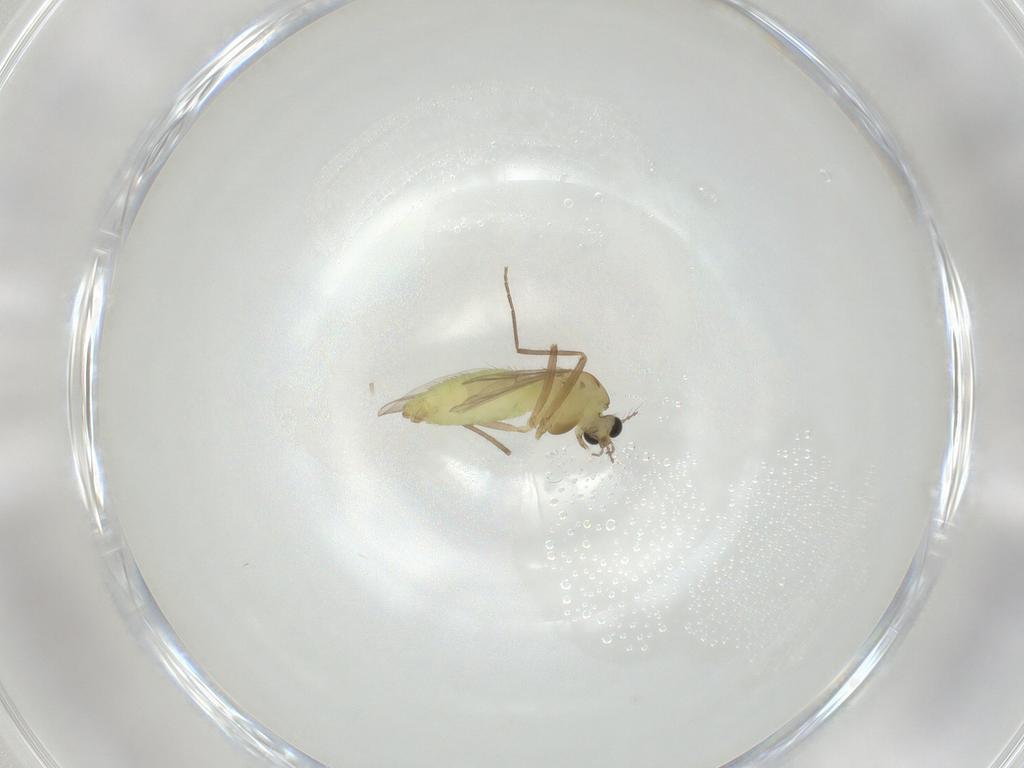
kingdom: Animalia
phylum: Arthropoda
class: Insecta
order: Diptera
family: Chironomidae
